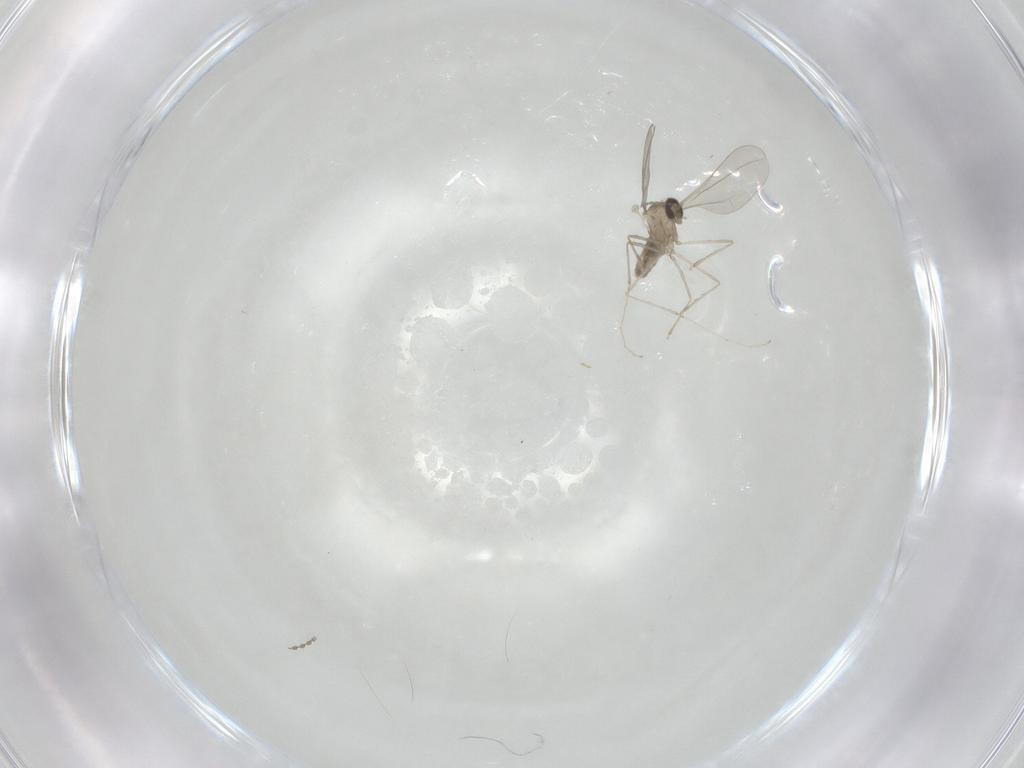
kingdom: Animalia
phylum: Arthropoda
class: Insecta
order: Diptera
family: Cecidomyiidae
